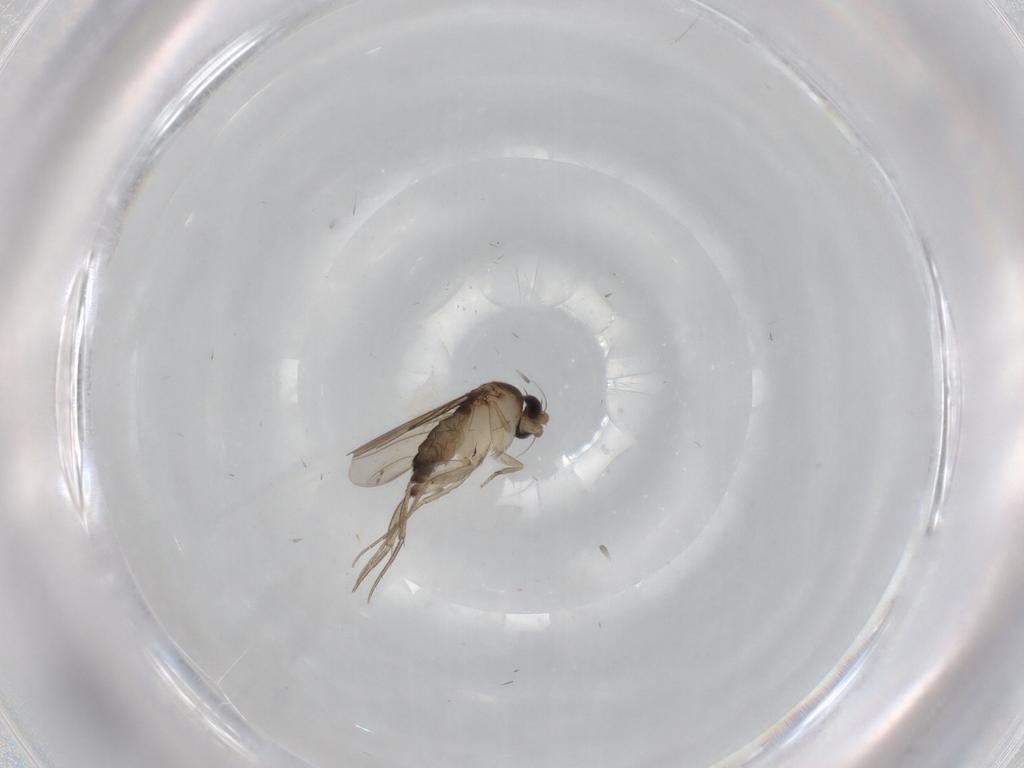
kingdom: Animalia
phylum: Arthropoda
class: Insecta
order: Diptera
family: Phoridae
